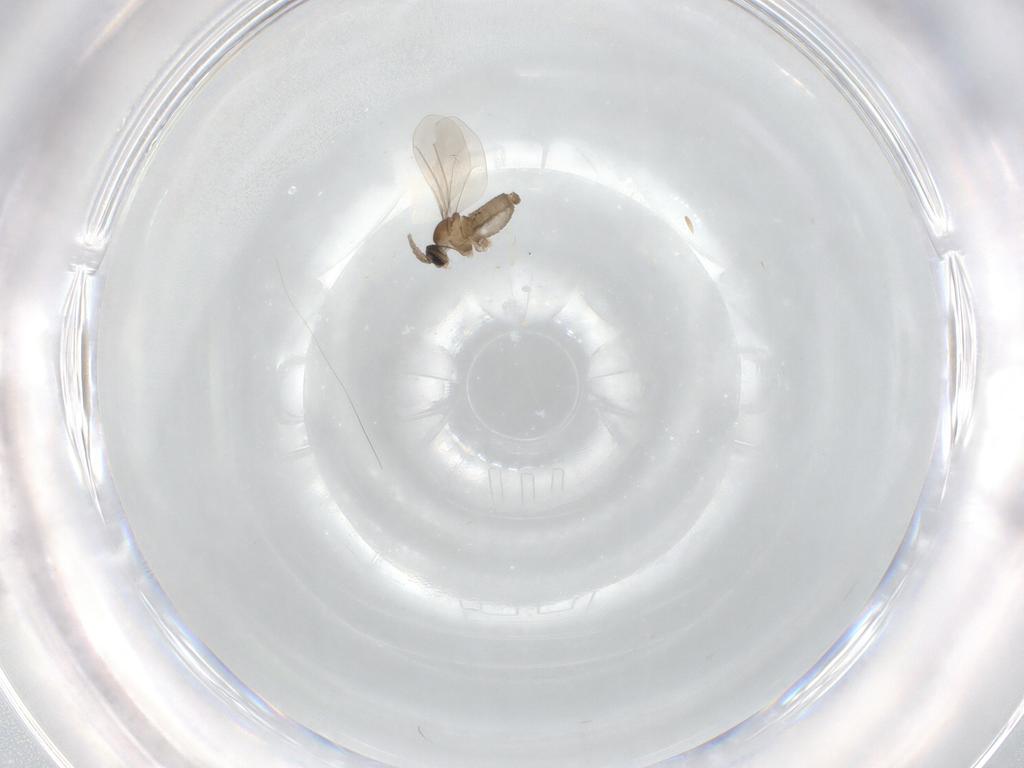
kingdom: Animalia
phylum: Arthropoda
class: Insecta
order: Diptera
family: Cecidomyiidae
